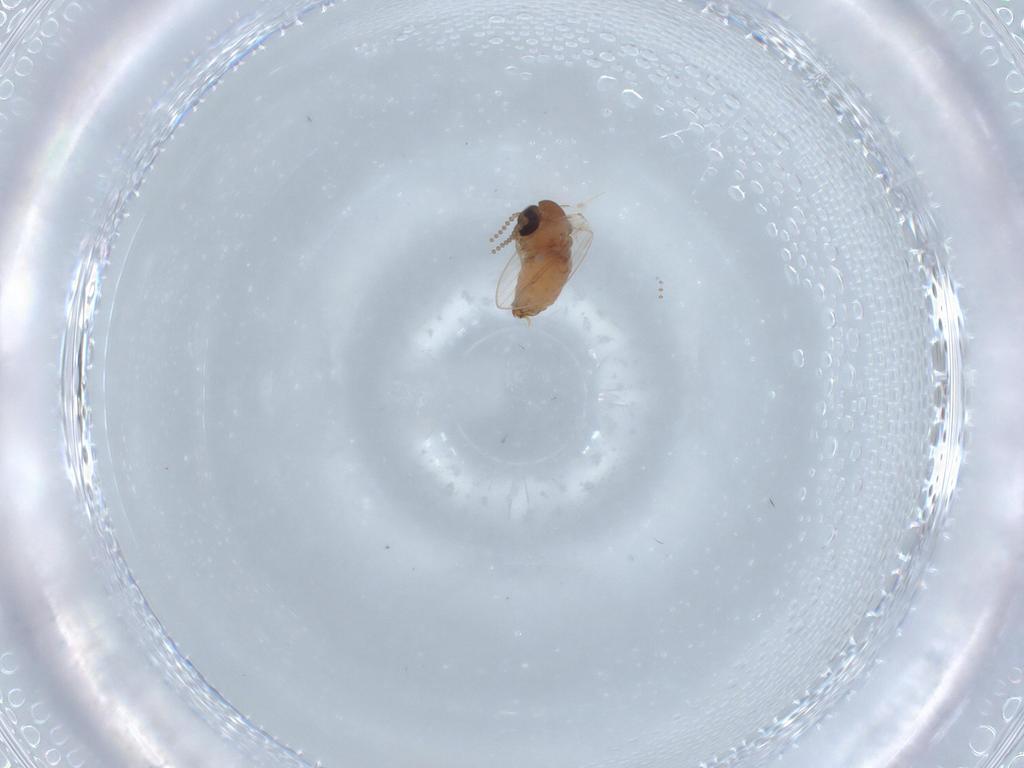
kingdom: Animalia
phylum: Arthropoda
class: Insecta
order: Diptera
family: Psychodidae
